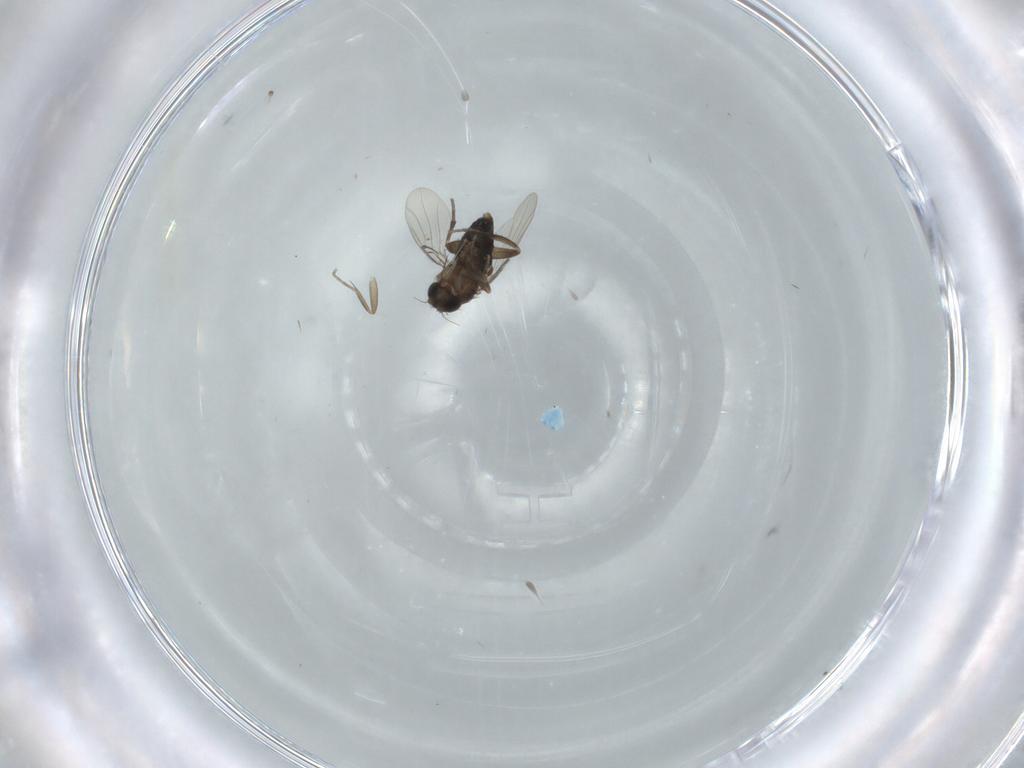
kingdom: Animalia
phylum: Arthropoda
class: Insecta
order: Diptera
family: Phoridae
